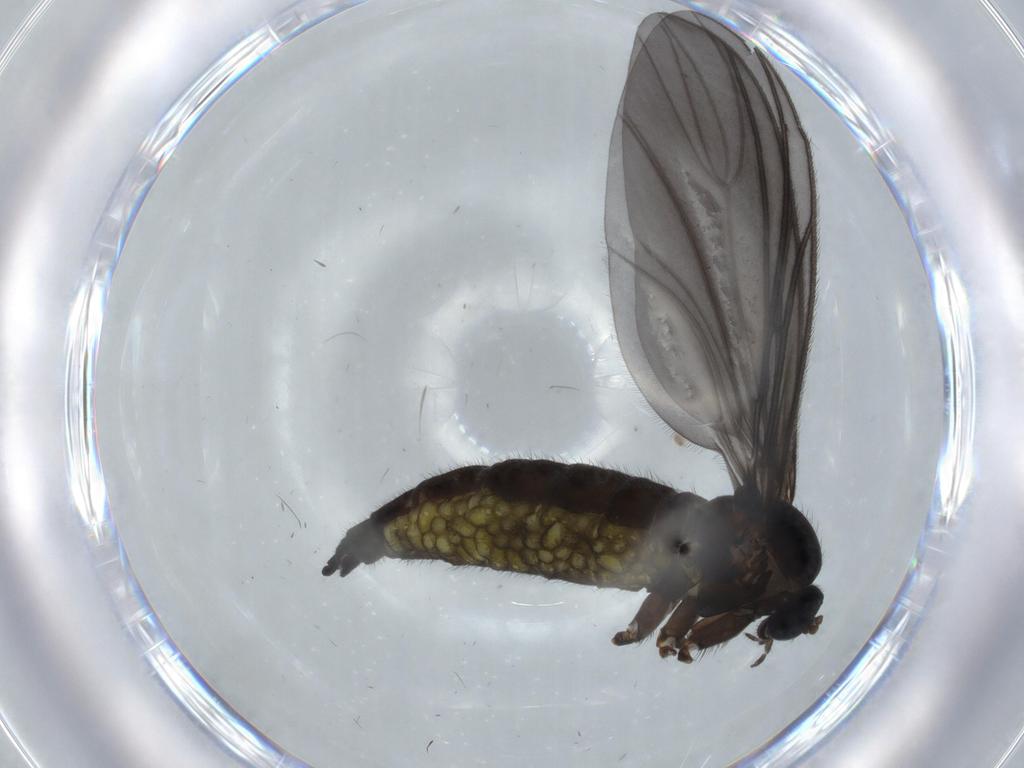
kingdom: Animalia
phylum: Arthropoda
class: Insecta
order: Diptera
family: Sciaridae
